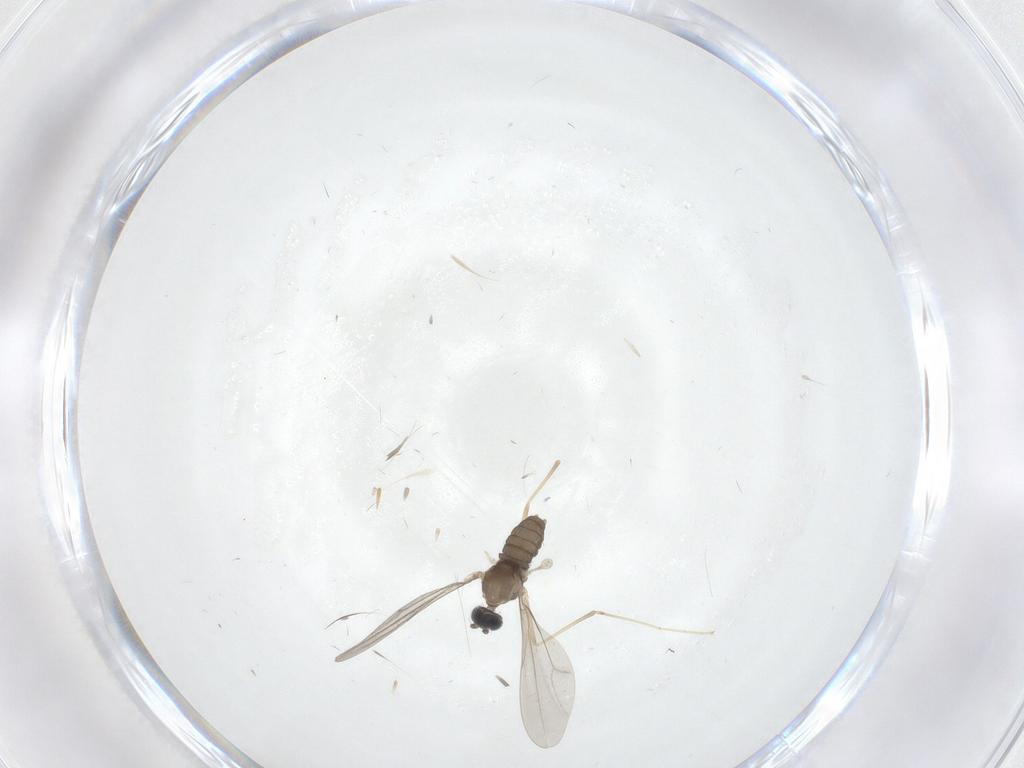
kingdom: Animalia
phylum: Arthropoda
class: Insecta
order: Diptera
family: Cecidomyiidae
